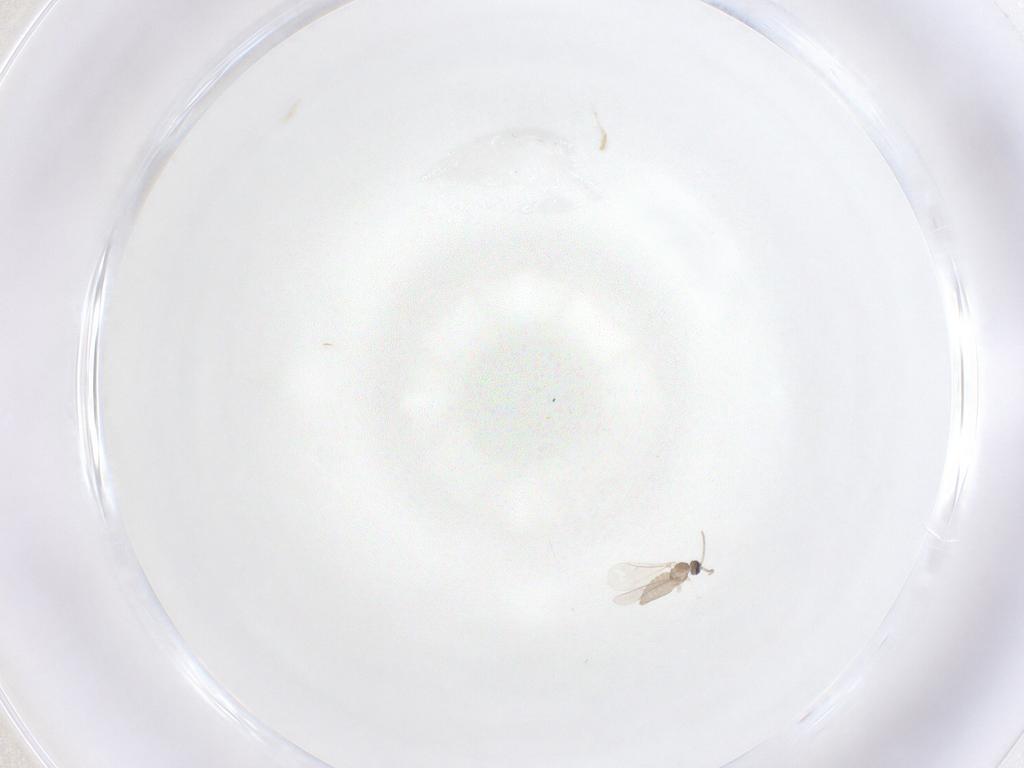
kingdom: Animalia
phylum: Arthropoda
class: Insecta
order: Diptera
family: Cecidomyiidae
